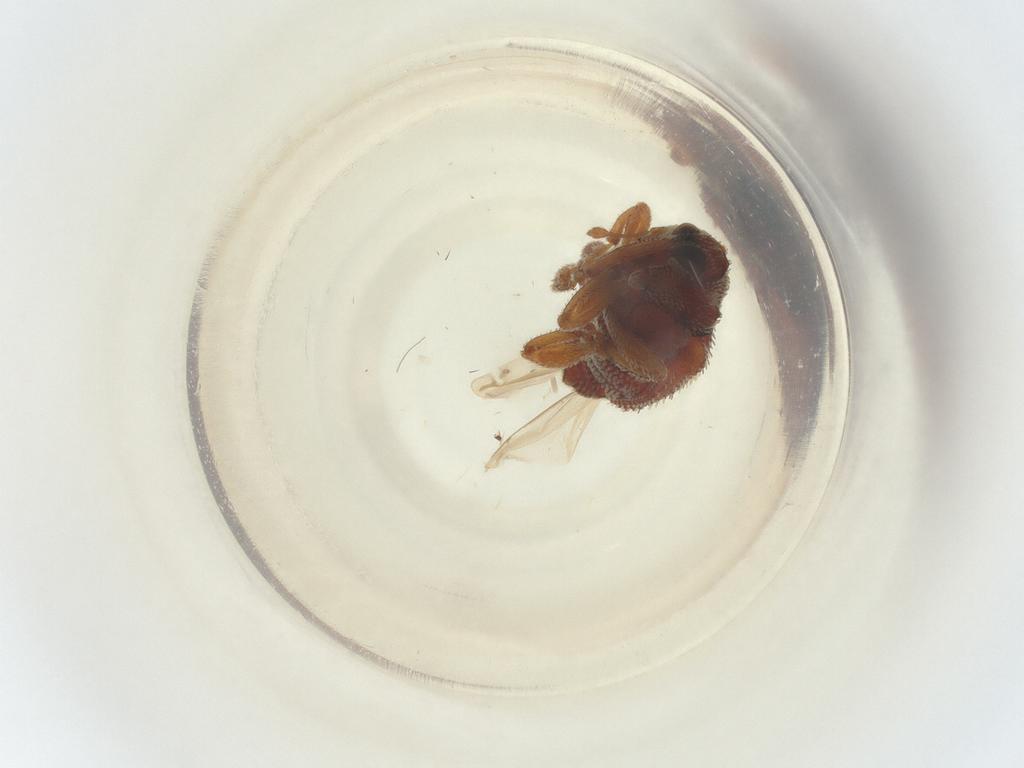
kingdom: Animalia
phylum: Arthropoda
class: Insecta
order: Coleoptera
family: Curculionidae
